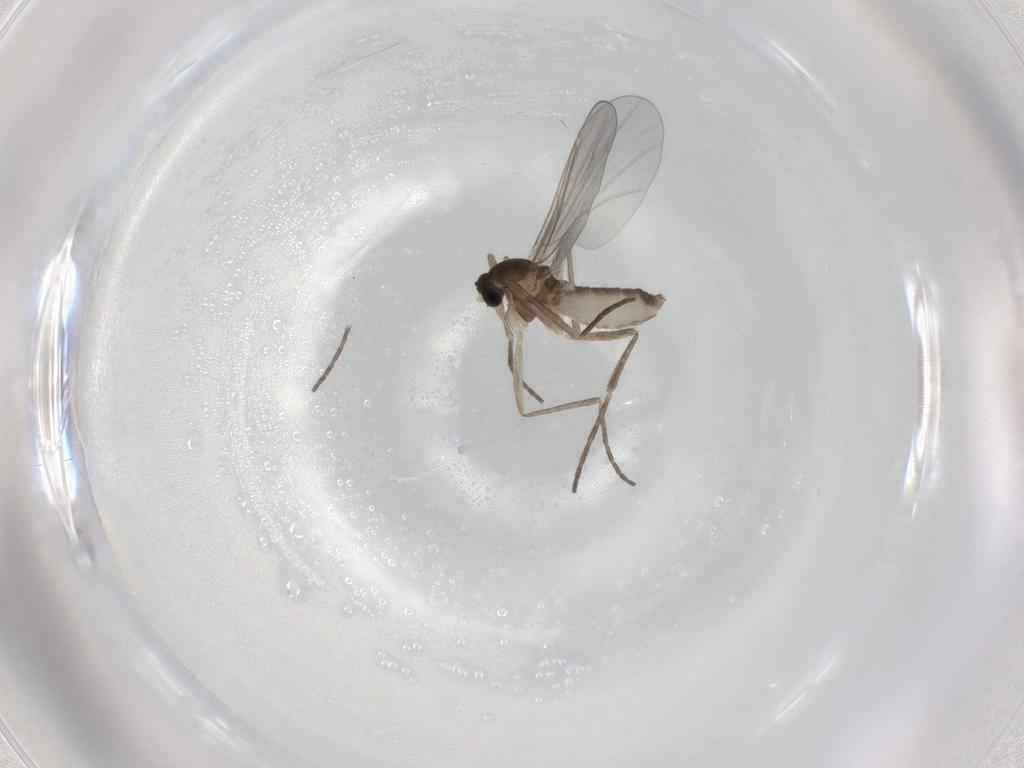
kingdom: Animalia
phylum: Arthropoda
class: Insecta
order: Diptera
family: Cecidomyiidae
